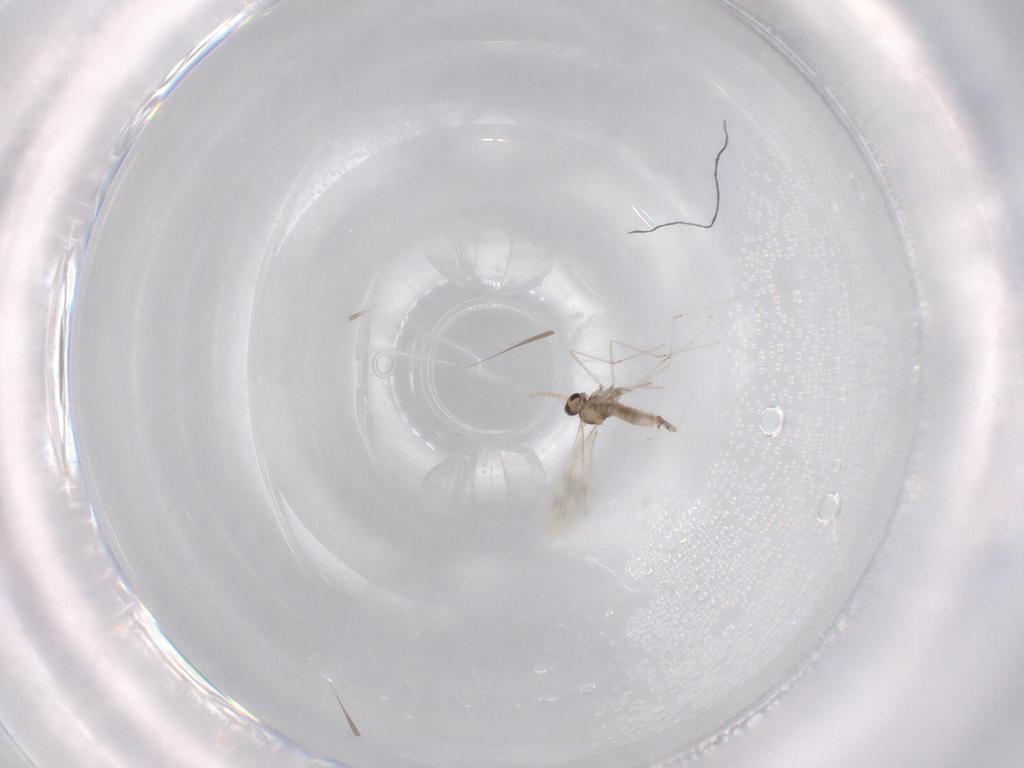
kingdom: Animalia
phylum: Arthropoda
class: Insecta
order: Diptera
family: Cecidomyiidae
